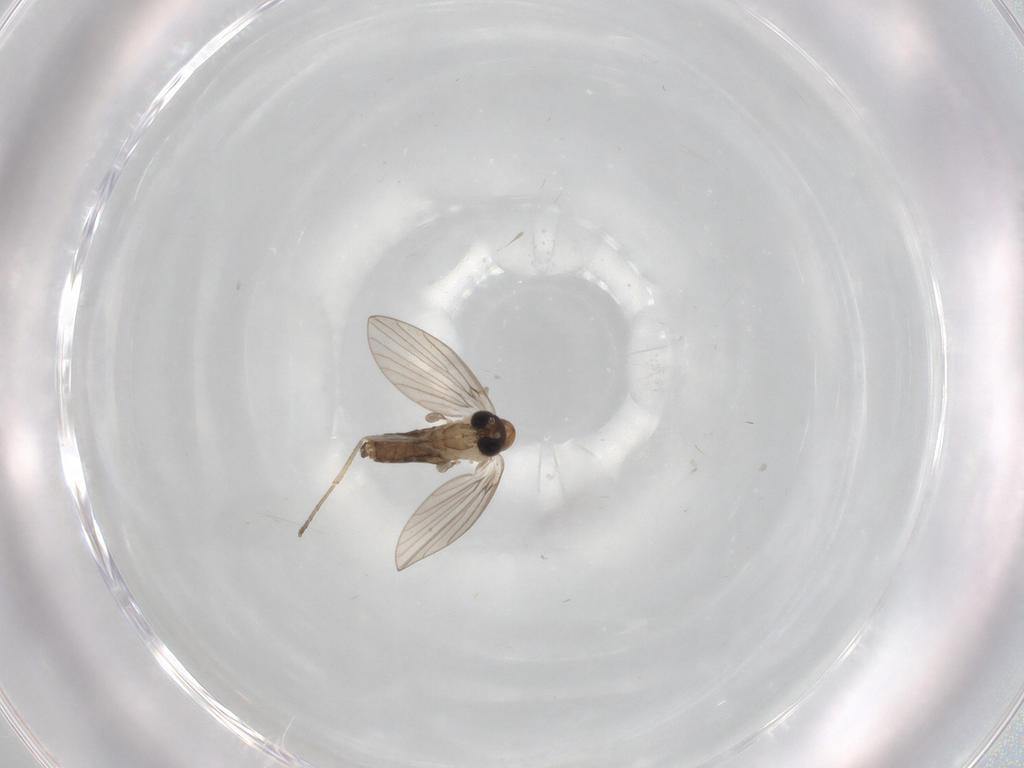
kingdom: Animalia
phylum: Arthropoda
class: Insecta
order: Diptera
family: Psychodidae
